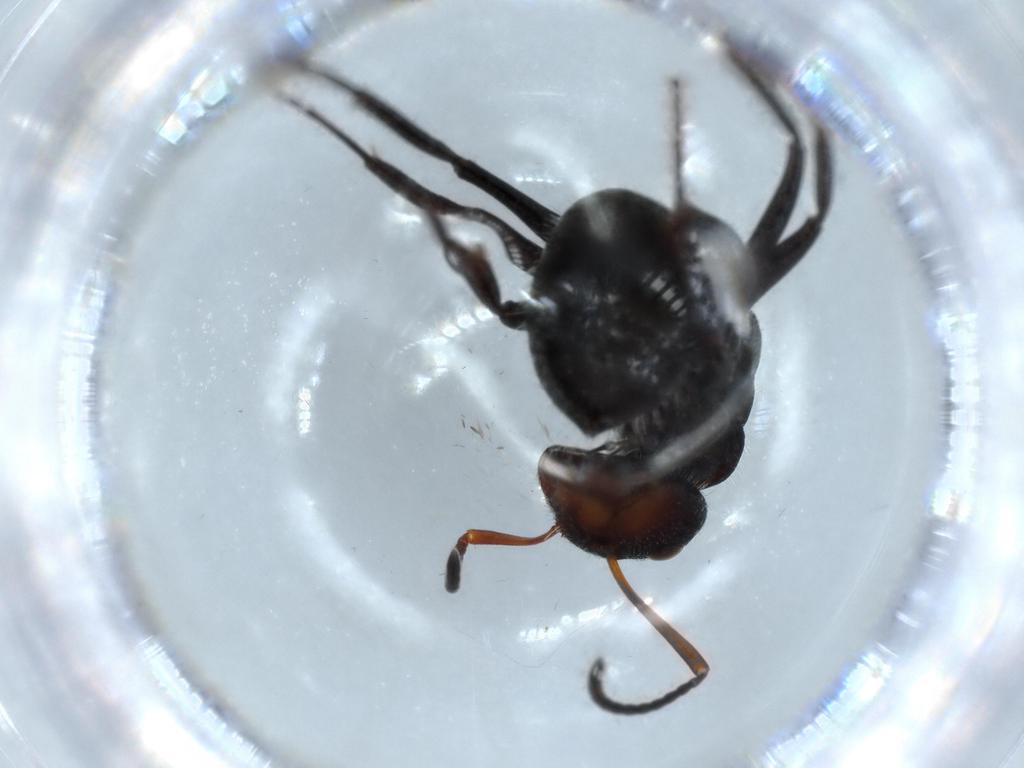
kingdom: Animalia
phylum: Arthropoda
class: Insecta
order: Hymenoptera
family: Formicidae
